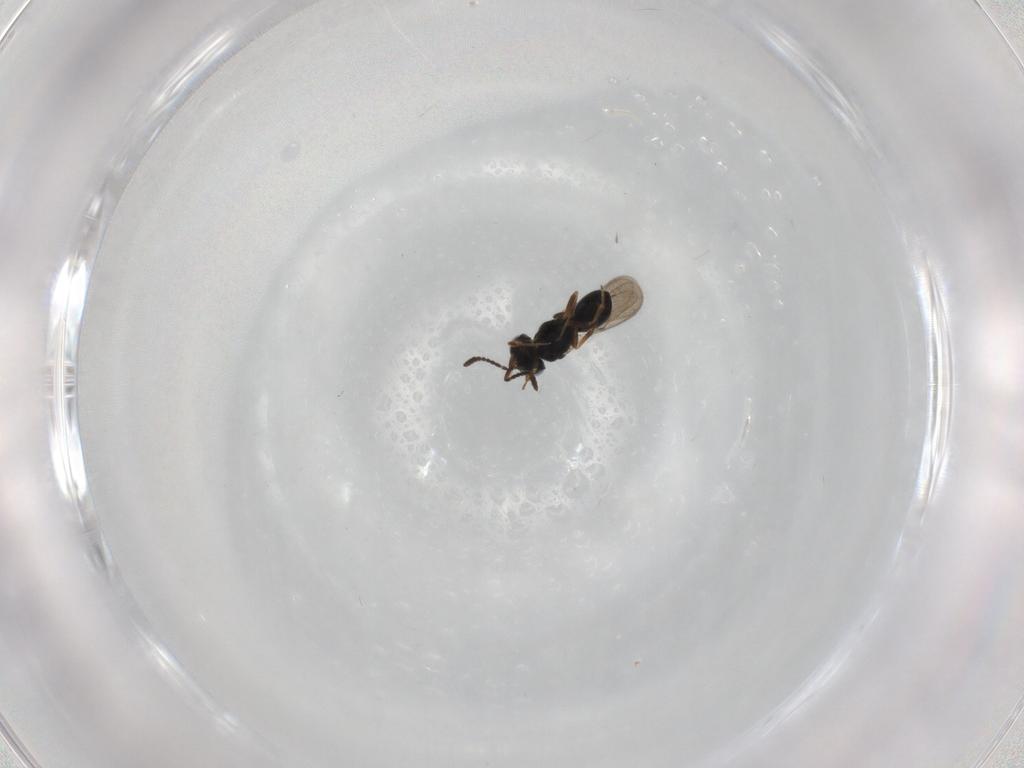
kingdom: Animalia
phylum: Arthropoda
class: Insecta
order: Hymenoptera
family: Scelionidae
